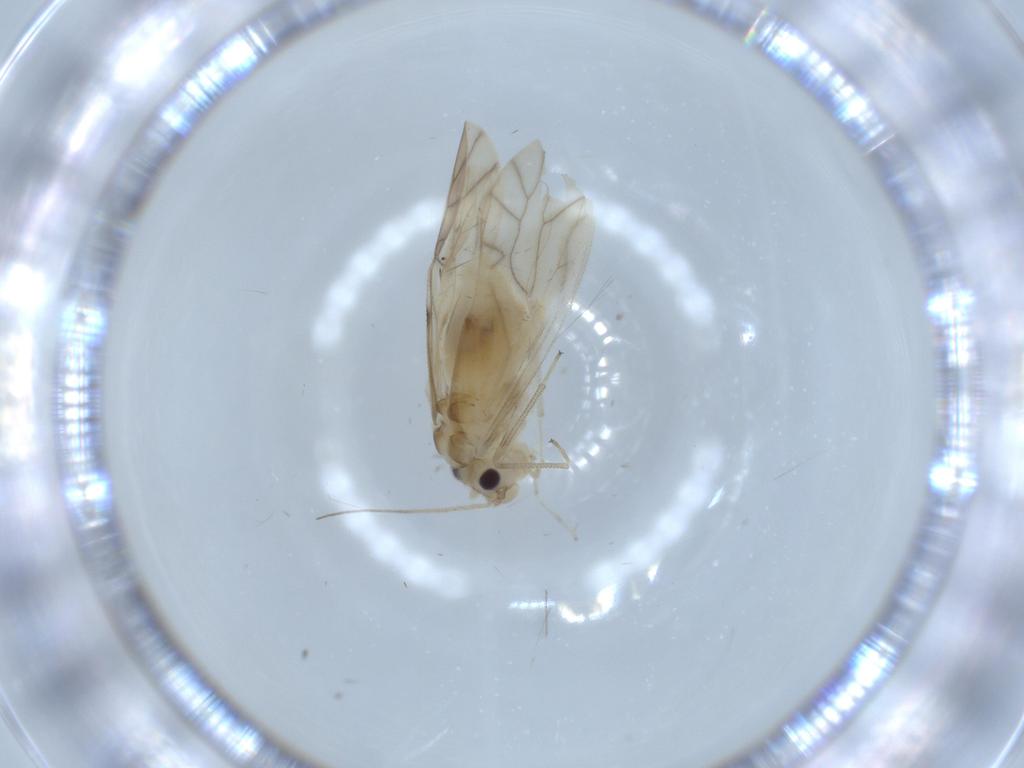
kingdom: Animalia
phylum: Arthropoda
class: Insecta
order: Psocodea
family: Caeciliusidae
